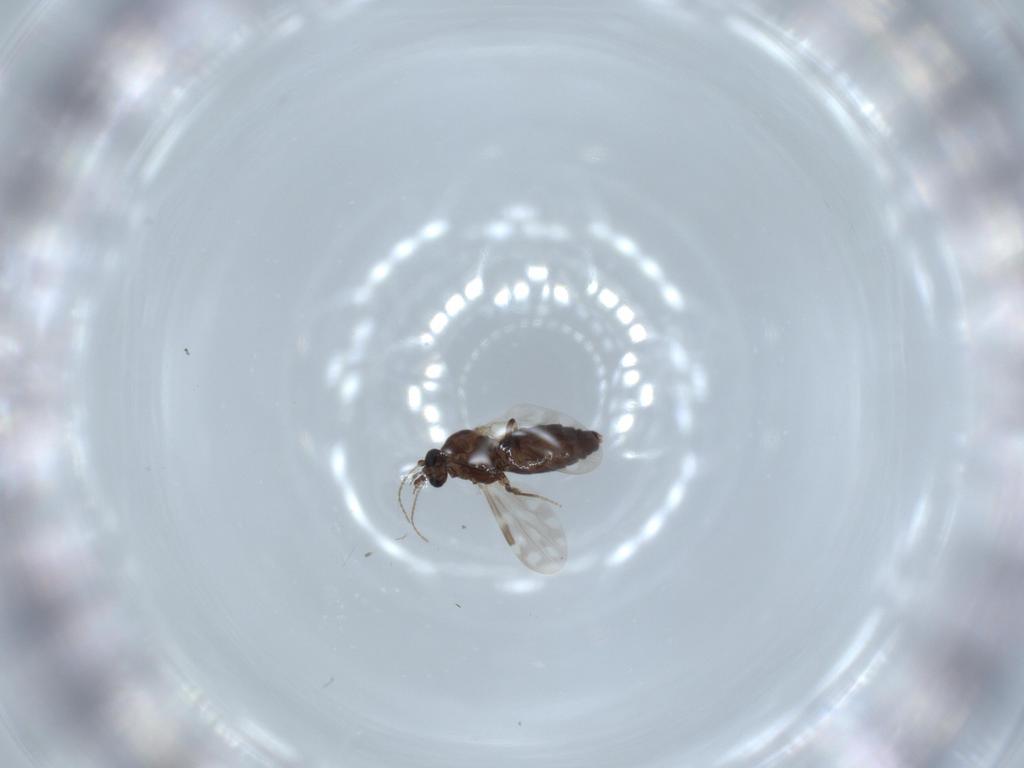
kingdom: Animalia
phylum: Arthropoda
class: Insecta
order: Diptera
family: Ceratopogonidae
